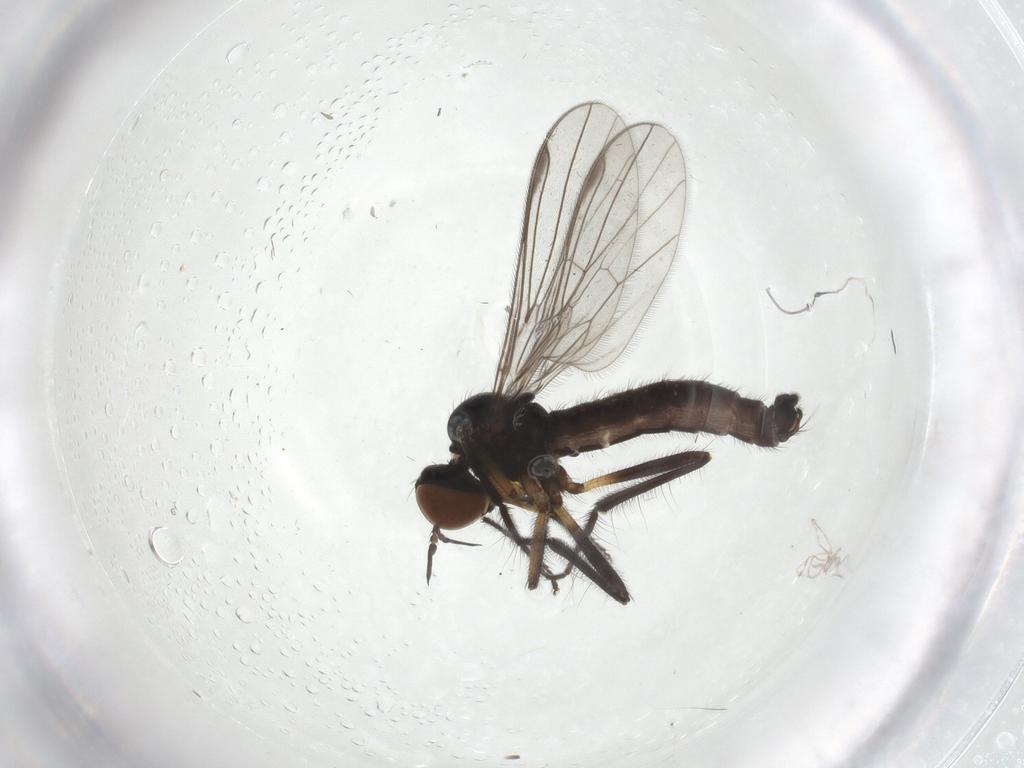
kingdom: Animalia
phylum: Arthropoda
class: Insecta
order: Diptera
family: Empididae
